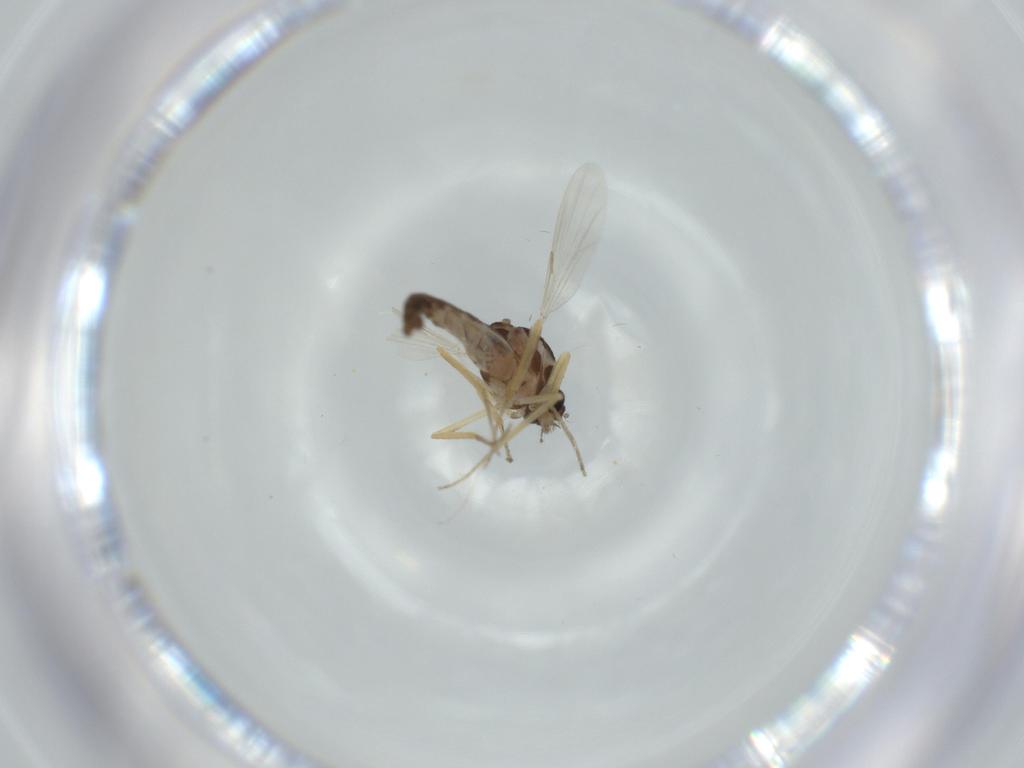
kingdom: Animalia
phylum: Arthropoda
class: Insecta
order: Diptera
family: Ceratopogonidae
